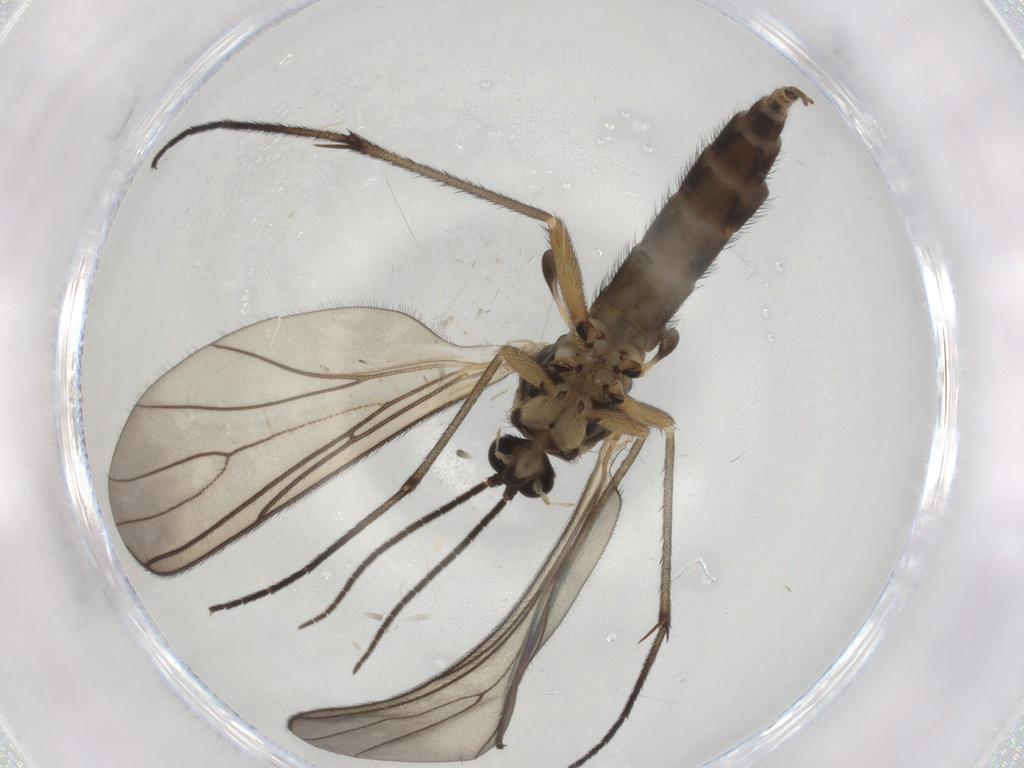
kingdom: Animalia
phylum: Arthropoda
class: Insecta
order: Diptera
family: Sciaridae
